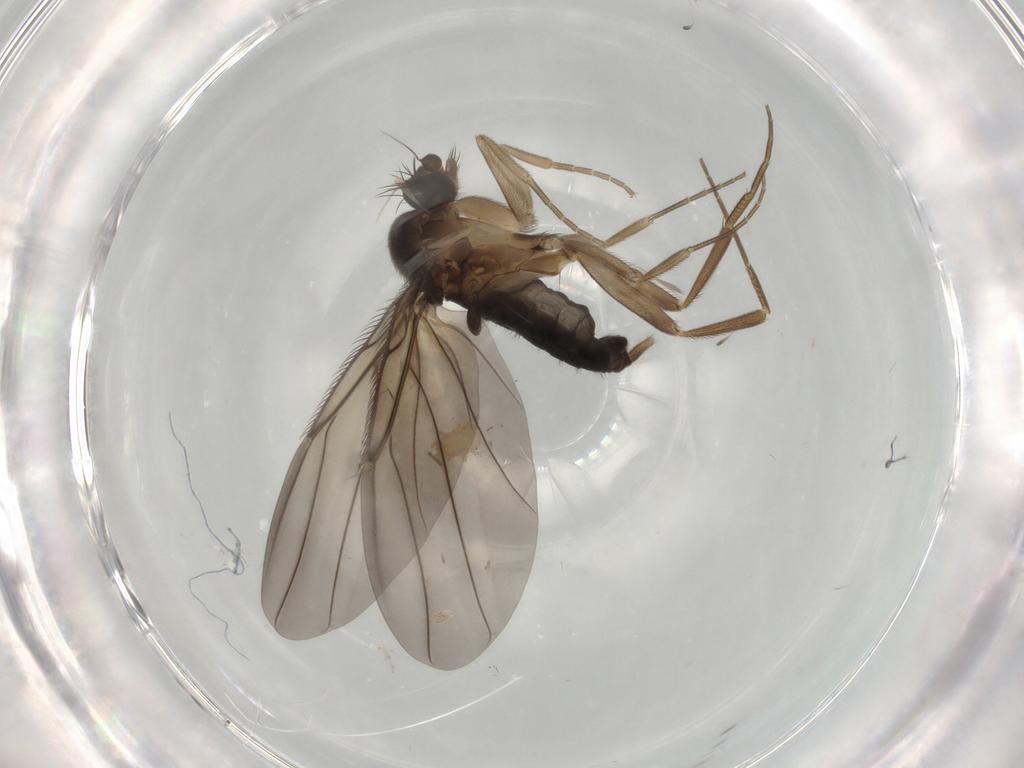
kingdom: Animalia
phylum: Arthropoda
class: Insecta
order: Diptera
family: Phoridae
